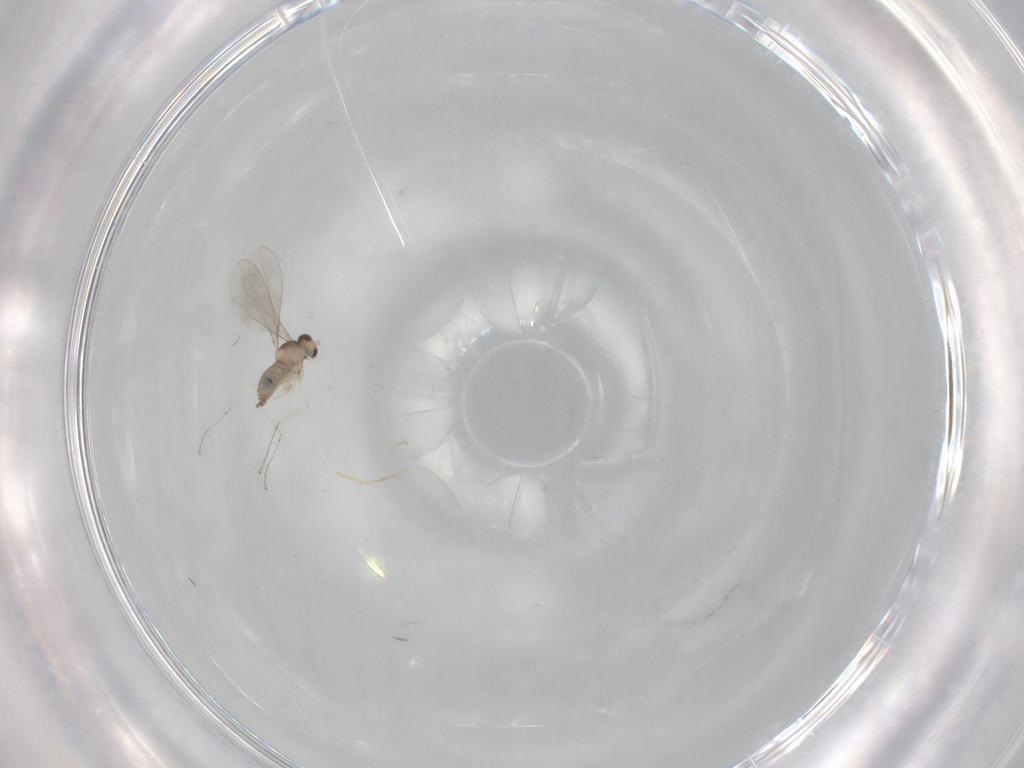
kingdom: Animalia
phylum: Arthropoda
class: Insecta
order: Diptera
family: Cecidomyiidae
